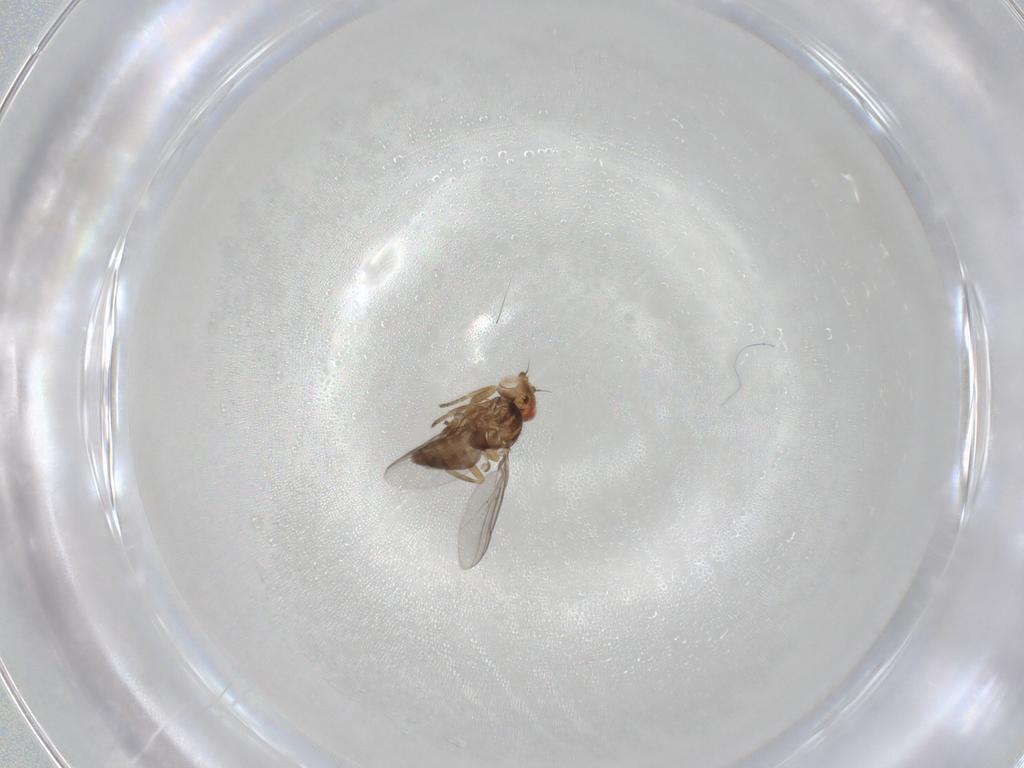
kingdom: Animalia
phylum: Arthropoda
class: Insecta
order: Diptera
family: Chloropidae
